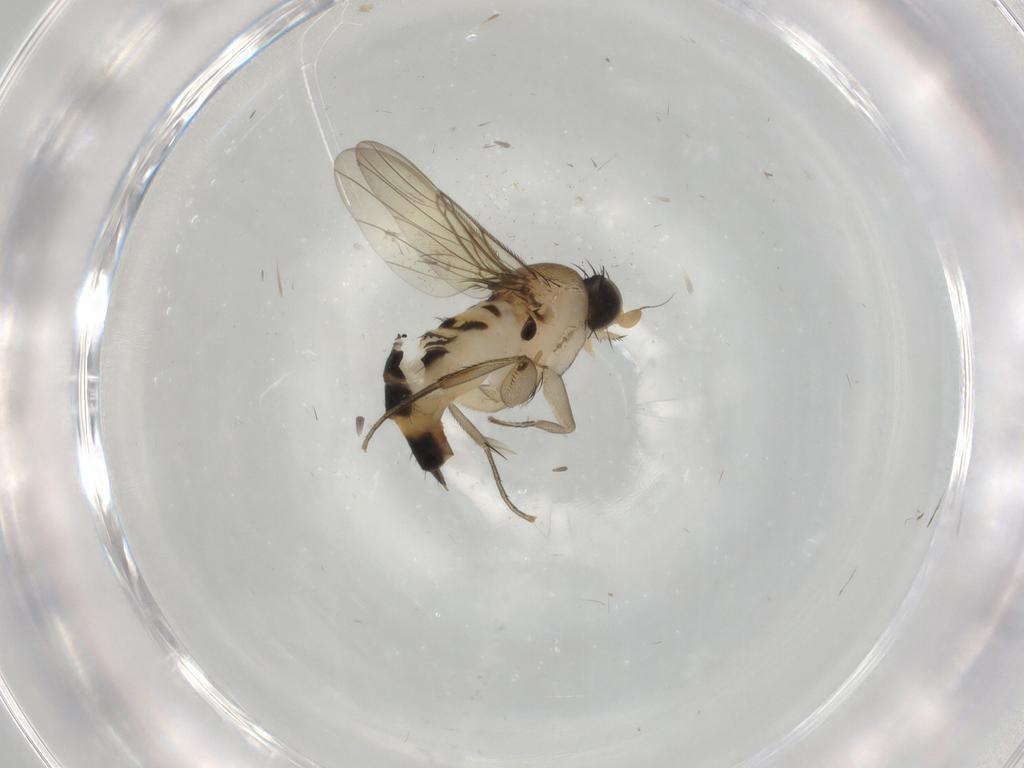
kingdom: Animalia
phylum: Arthropoda
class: Insecta
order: Diptera
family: Phoridae
